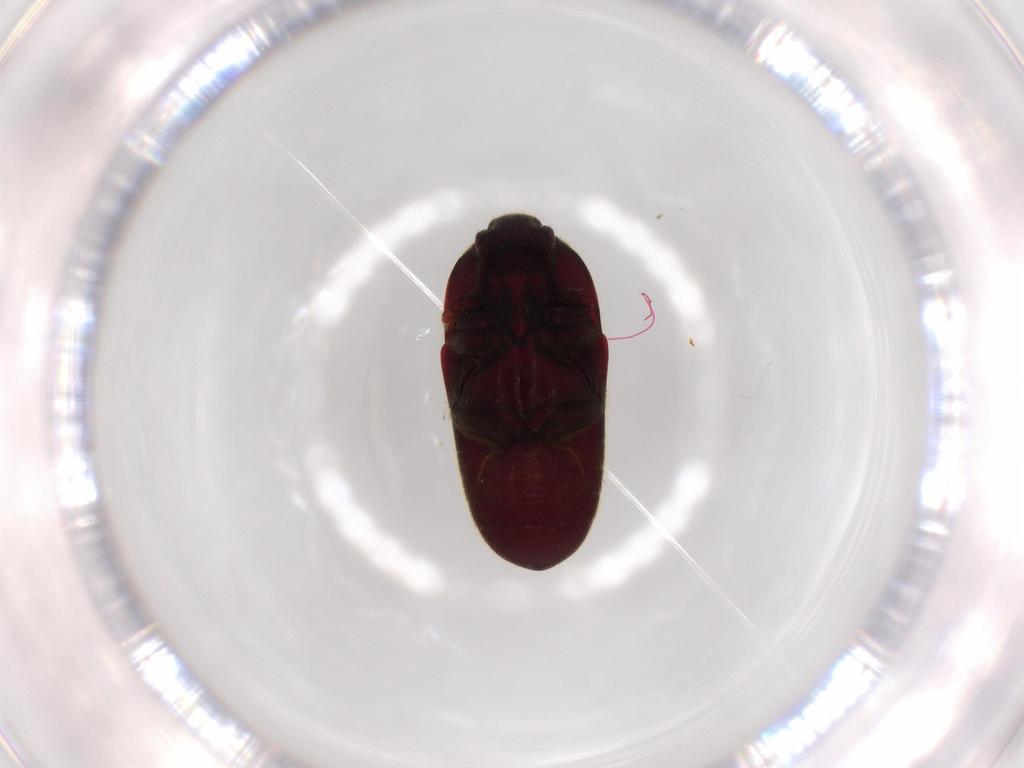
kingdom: Animalia
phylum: Arthropoda
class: Insecta
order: Coleoptera
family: Throscidae
